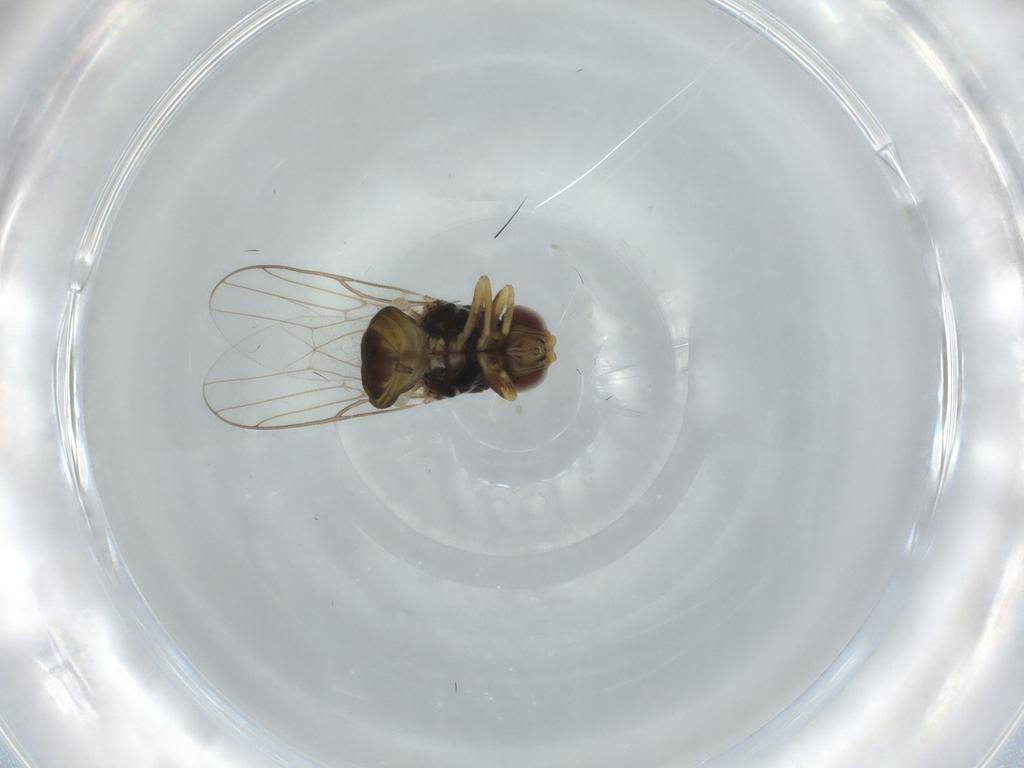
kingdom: Animalia
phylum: Arthropoda
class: Insecta
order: Diptera
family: Chloropidae
